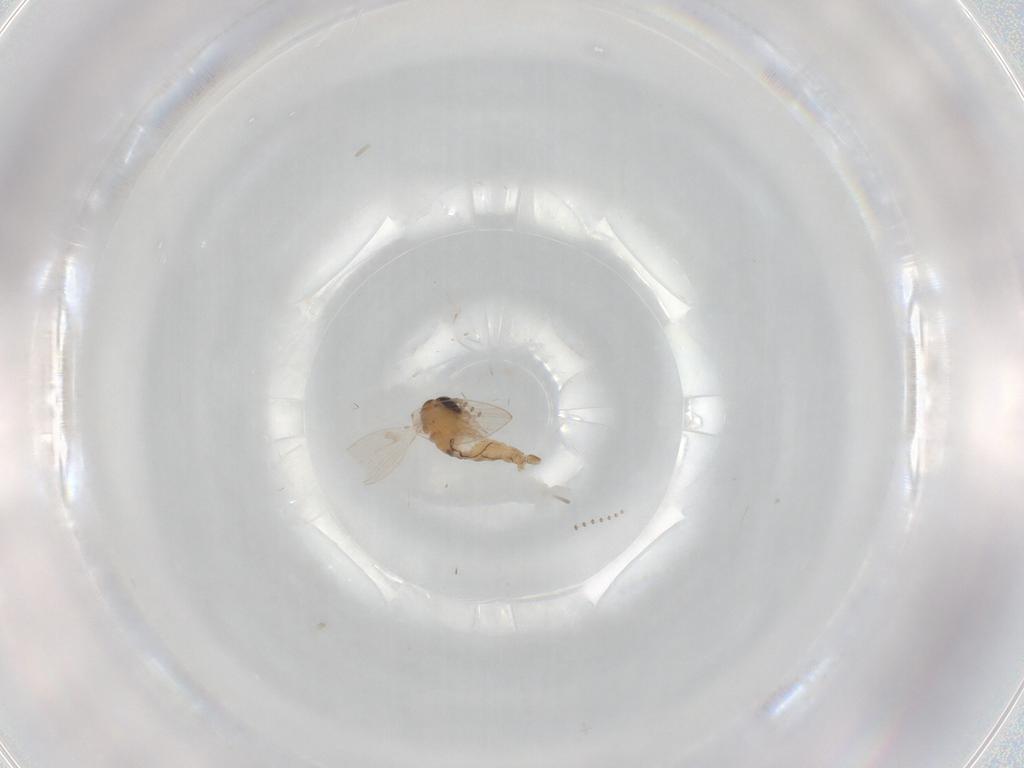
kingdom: Animalia
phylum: Arthropoda
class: Insecta
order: Diptera
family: Psychodidae
